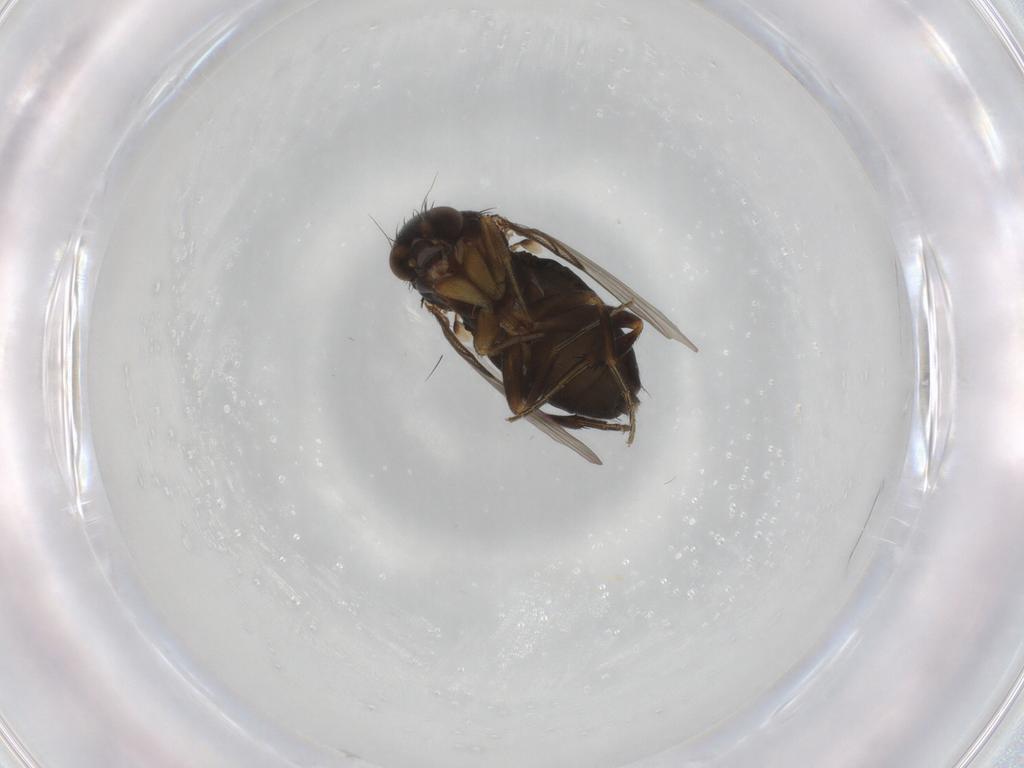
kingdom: Animalia
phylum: Arthropoda
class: Insecta
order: Diptera
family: Phoridae
